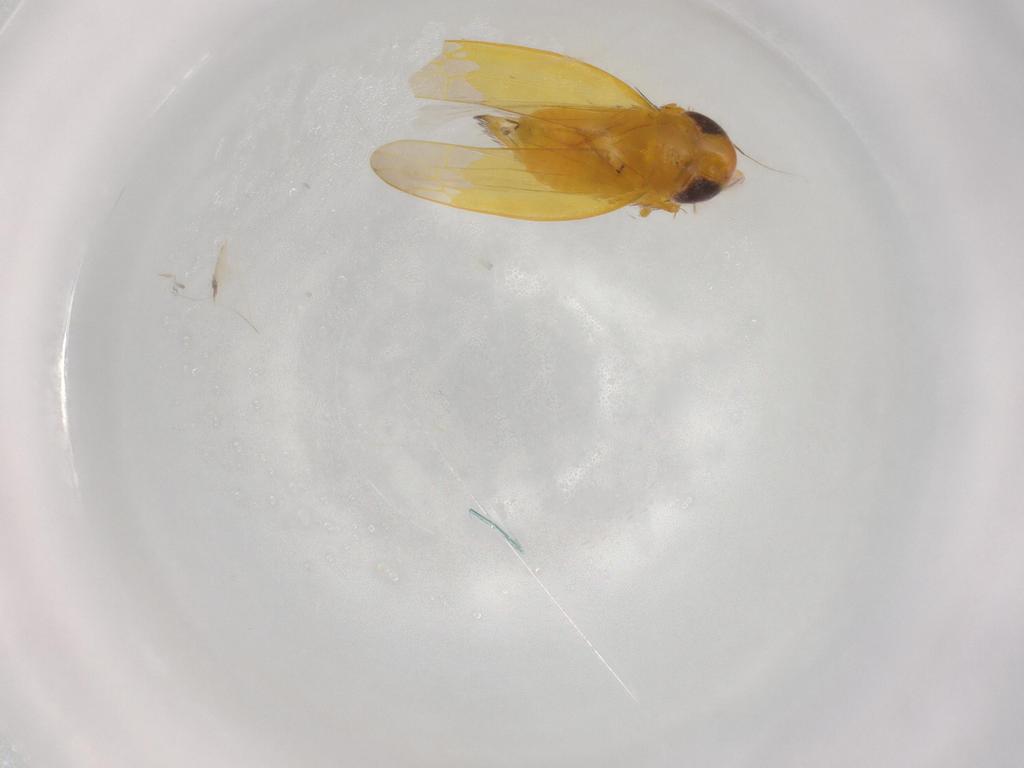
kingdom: Animalia
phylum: Arthropoda
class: Insecta
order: Hemiptera
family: Cicadellidae
